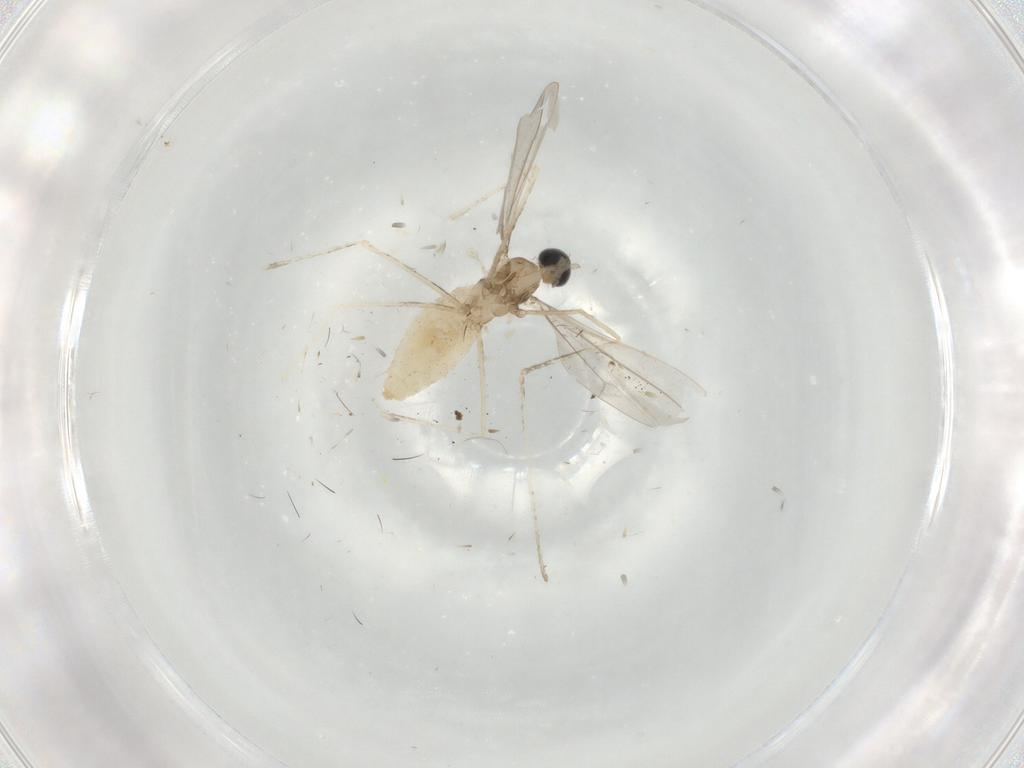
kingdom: Animalia
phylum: Arthropoda
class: Insecta
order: Diptera
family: Cecidomyiidae
